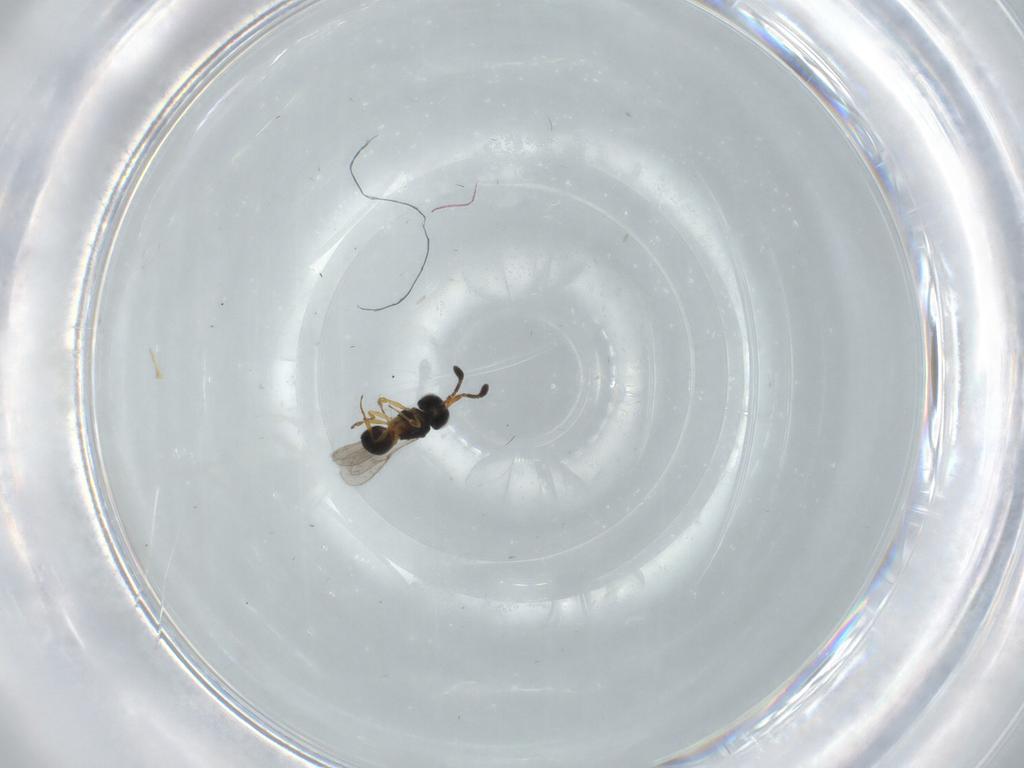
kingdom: Animalia
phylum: Arthropoda
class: Insecta
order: Hymenoptera
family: Scelionidae
